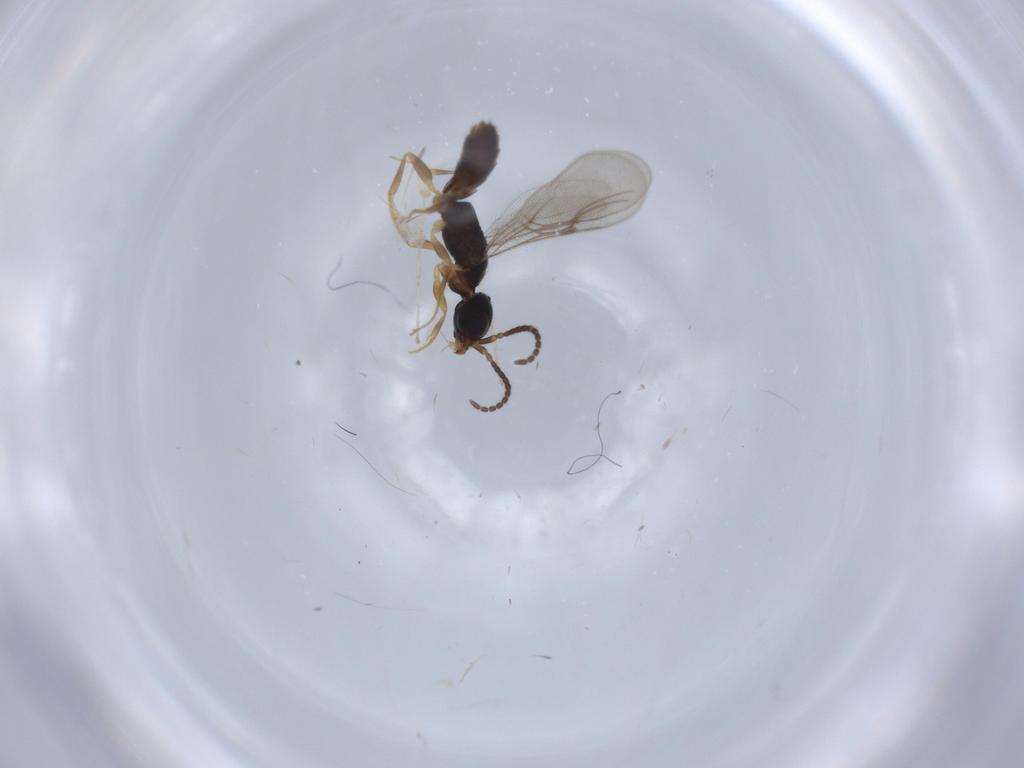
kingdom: Animalia
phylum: Arthropoda
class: Insecta
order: Hymenoptera
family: Bethylidae
